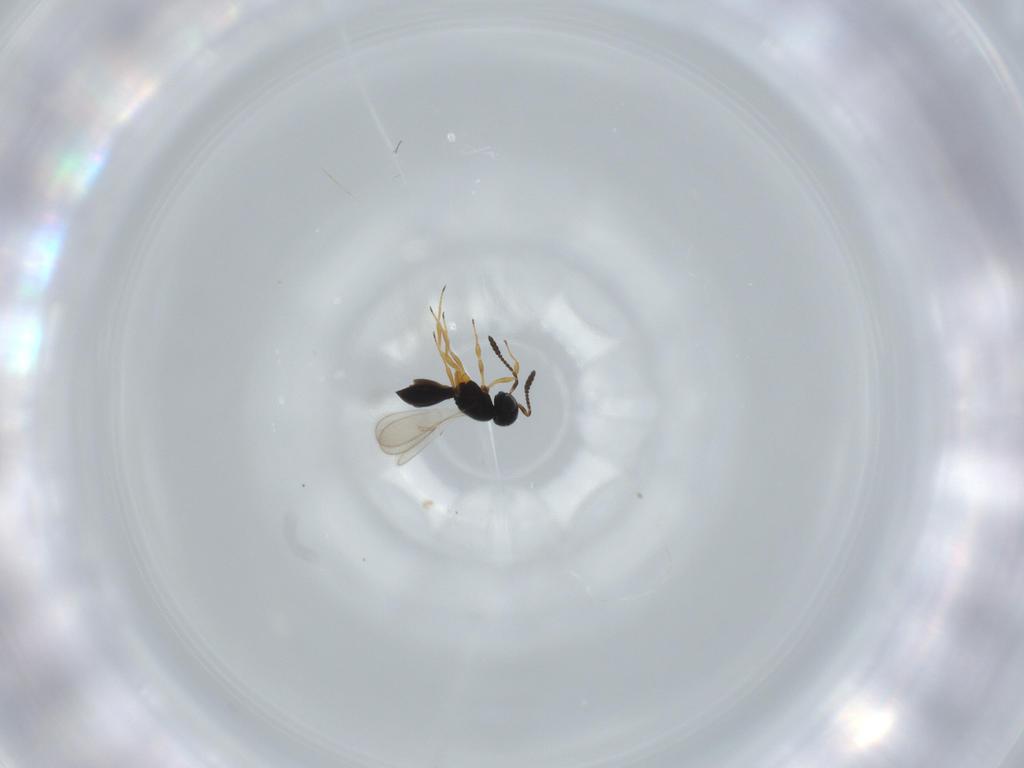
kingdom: Animalia
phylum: Arthropoda
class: Insecta
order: Hymenoptera
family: Scelionidae
